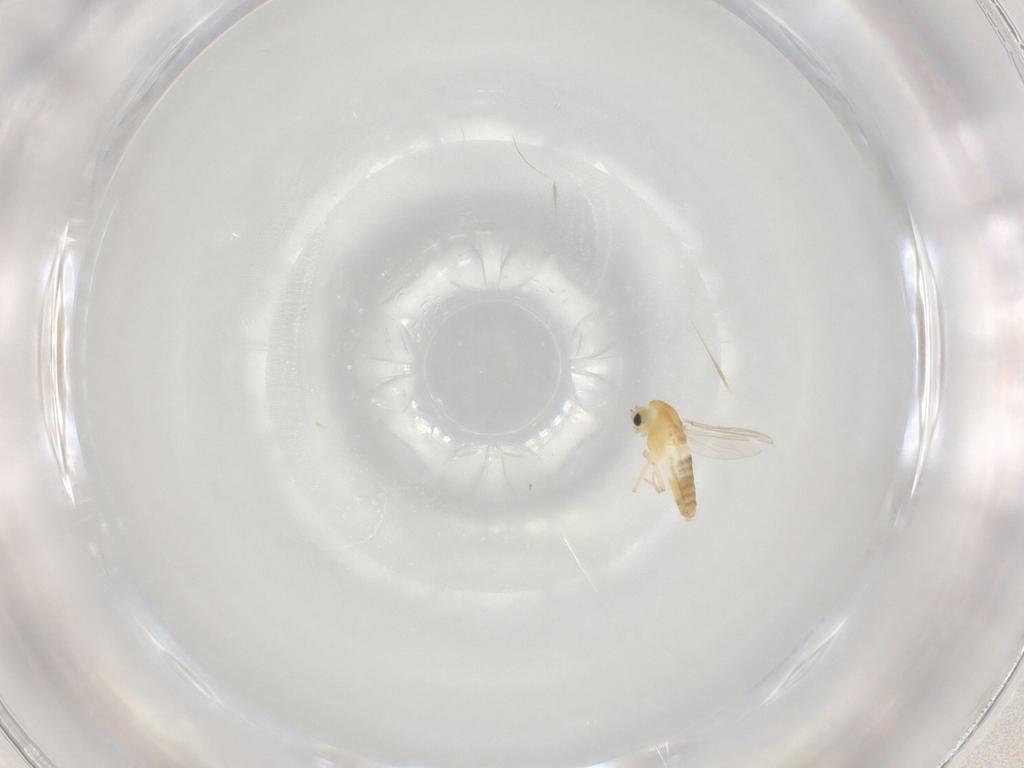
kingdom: Animalia
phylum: Arthropoda
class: Insecta
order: Diptera
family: Chironomidae
